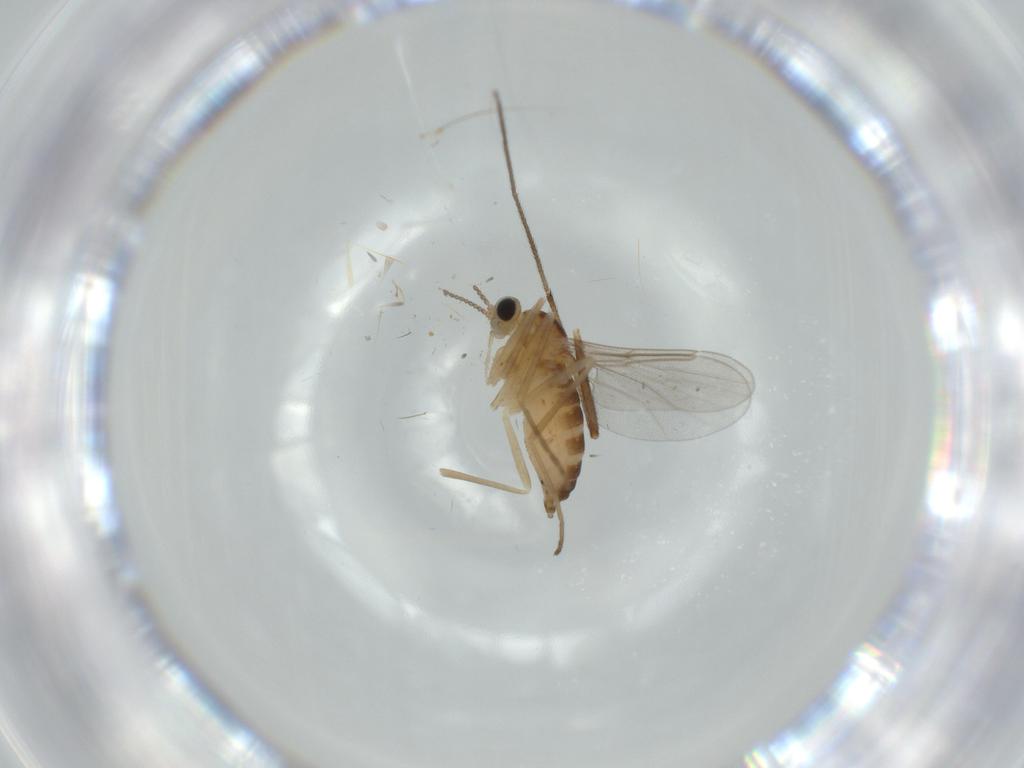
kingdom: Animalia
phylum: Arthropoda
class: Insecta
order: Diptera
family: Cecidomyiidae
